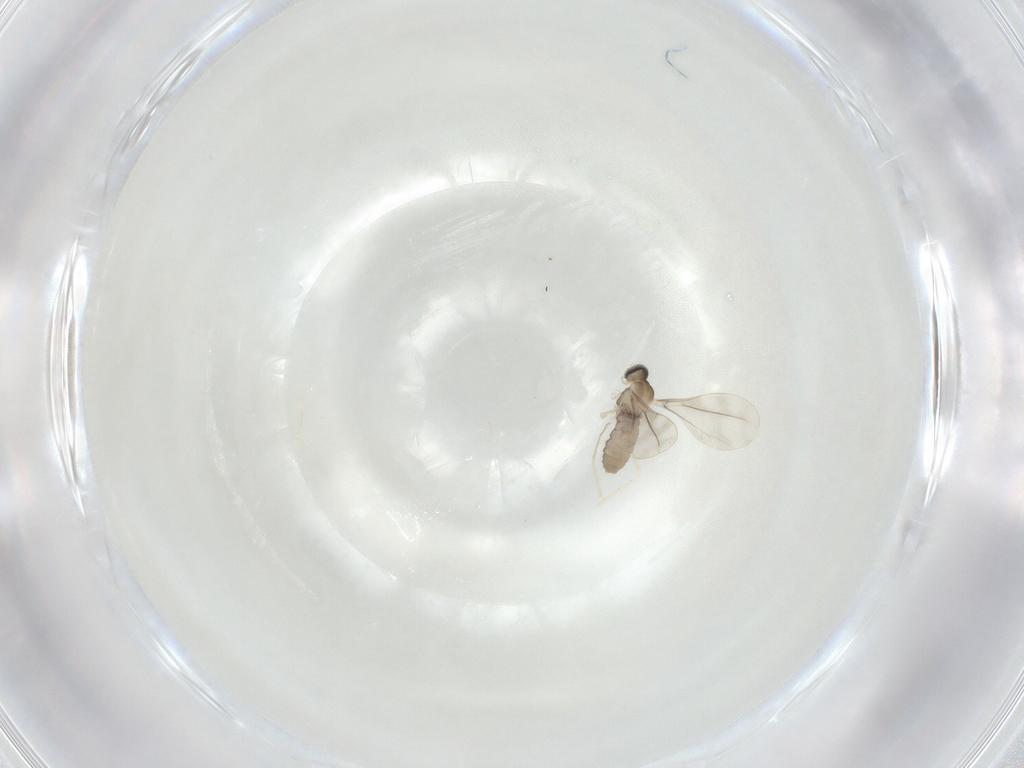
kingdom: Animalia
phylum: Arthropoda
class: Insecta
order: Diptera
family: Cecidomyiidae
